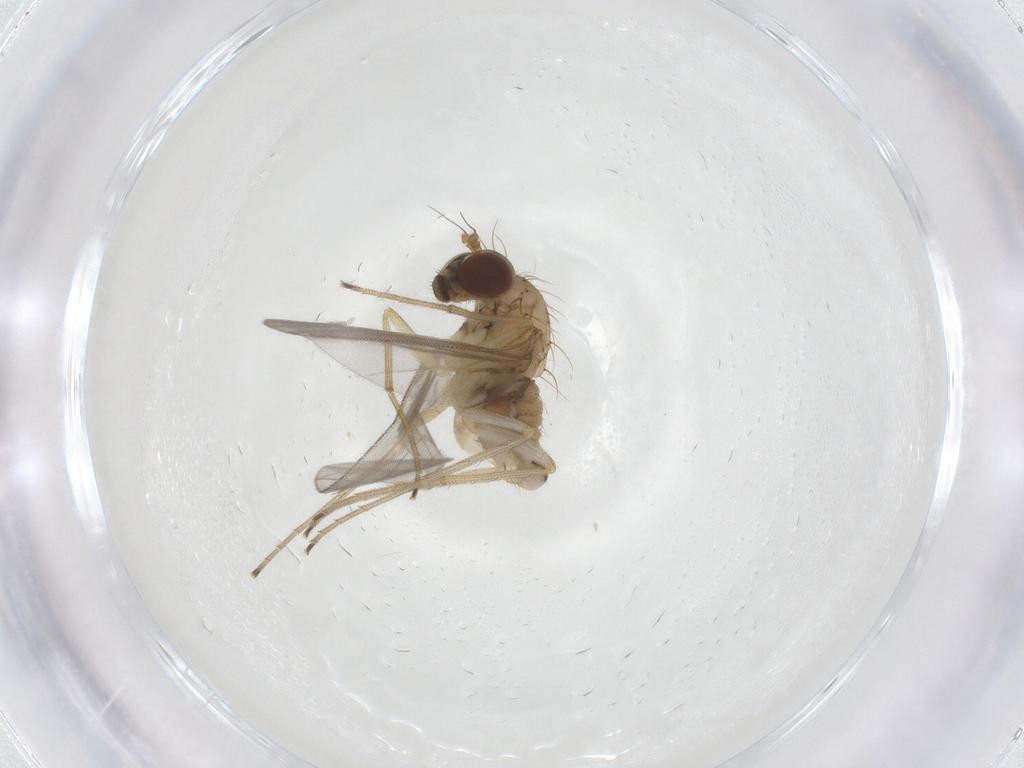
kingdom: Animalia
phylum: Arthropoda
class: Insecta
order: Diptera
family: Dolichopodidae
